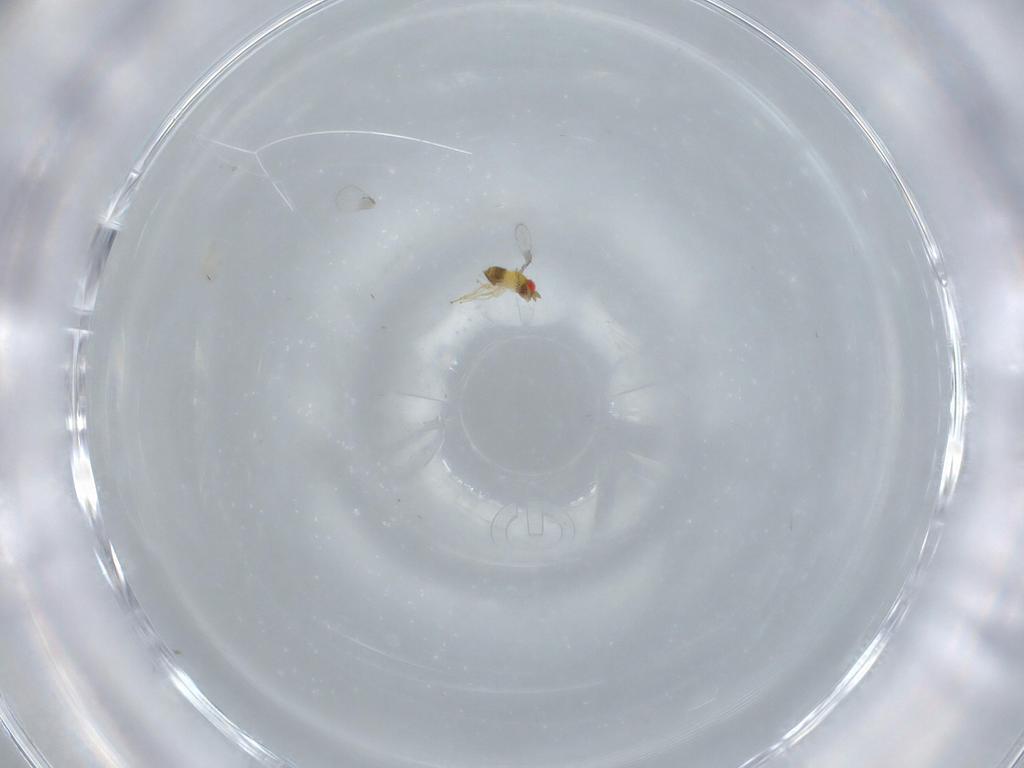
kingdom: Animalia
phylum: Arthropoda
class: Insecta
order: Hymenoptera
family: Trichogrammatidae
